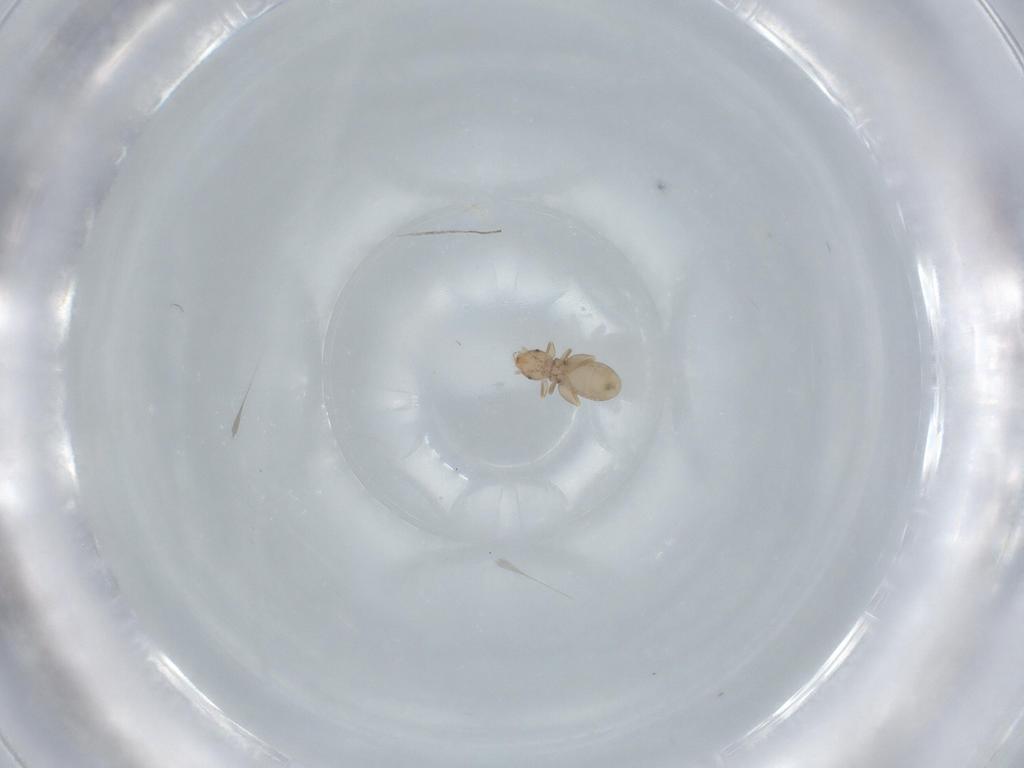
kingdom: Animalia
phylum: Arthropoda
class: Insecta
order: Psocodea
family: Liposcelididae
